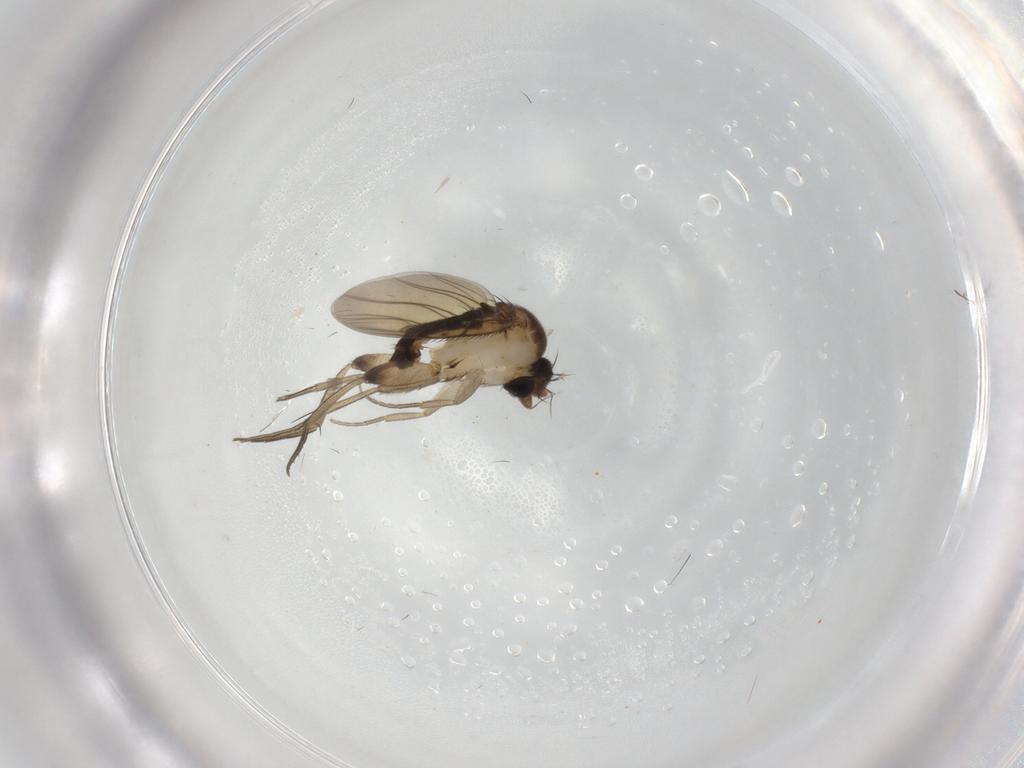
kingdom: Animalia
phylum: Arthropoda
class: Insecta
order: Diptera
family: Phoridae
